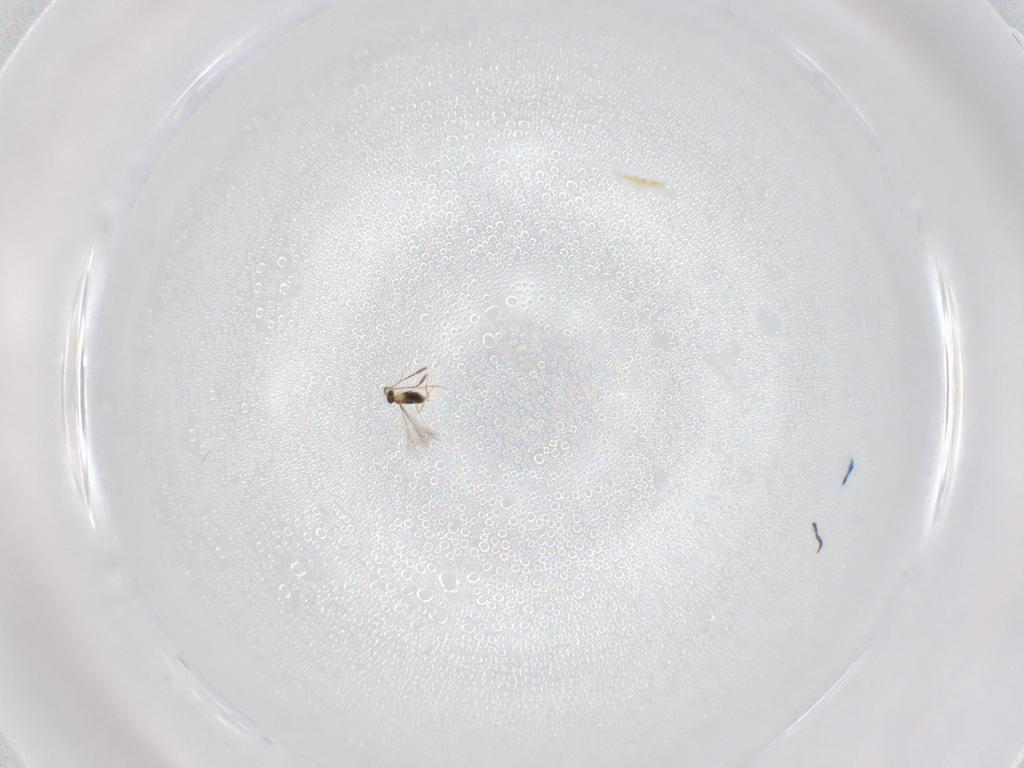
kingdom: Animalia
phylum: Arthropoda
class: Insecta
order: Hymenoptera
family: Mymaridae
